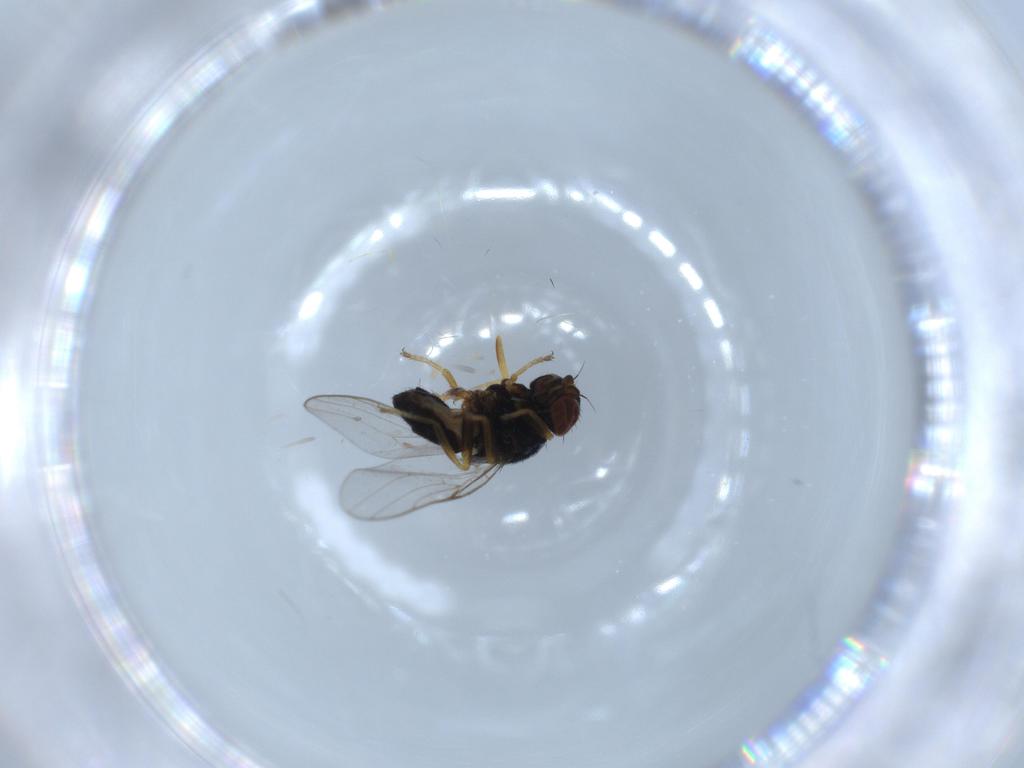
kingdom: Animalia
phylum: Arthropoda
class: Insecta
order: Diptera
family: Chloropidae
